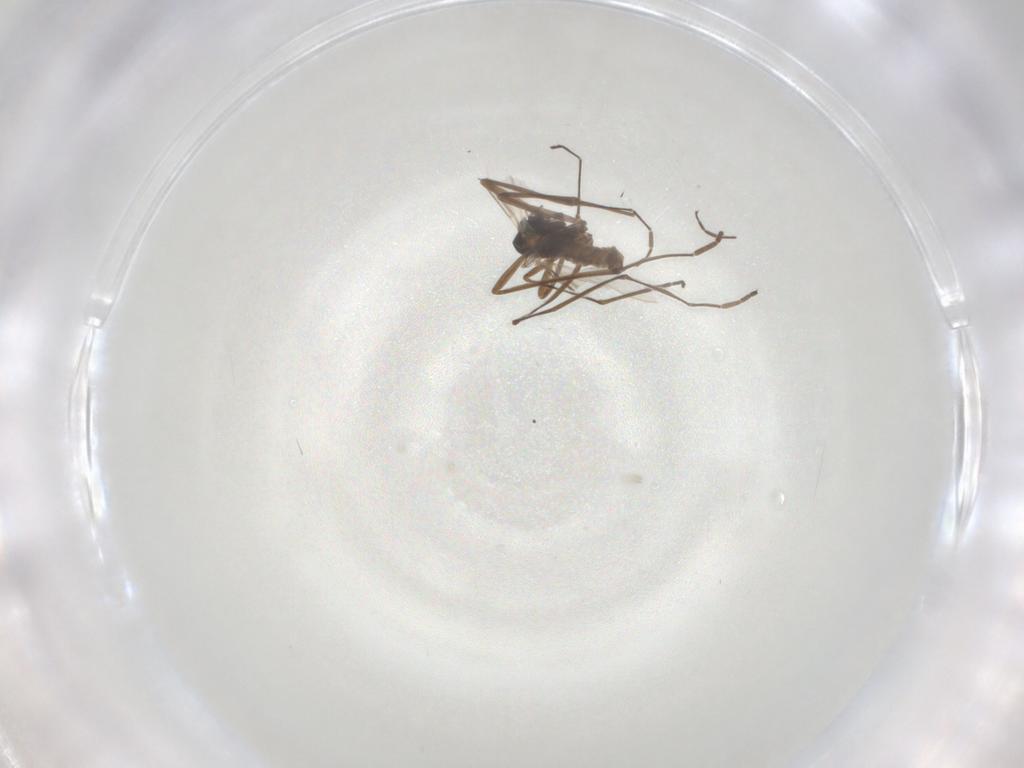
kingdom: Animalia
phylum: Arthropoda
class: Insecta
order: Diptera
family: Cecidomyiidae
